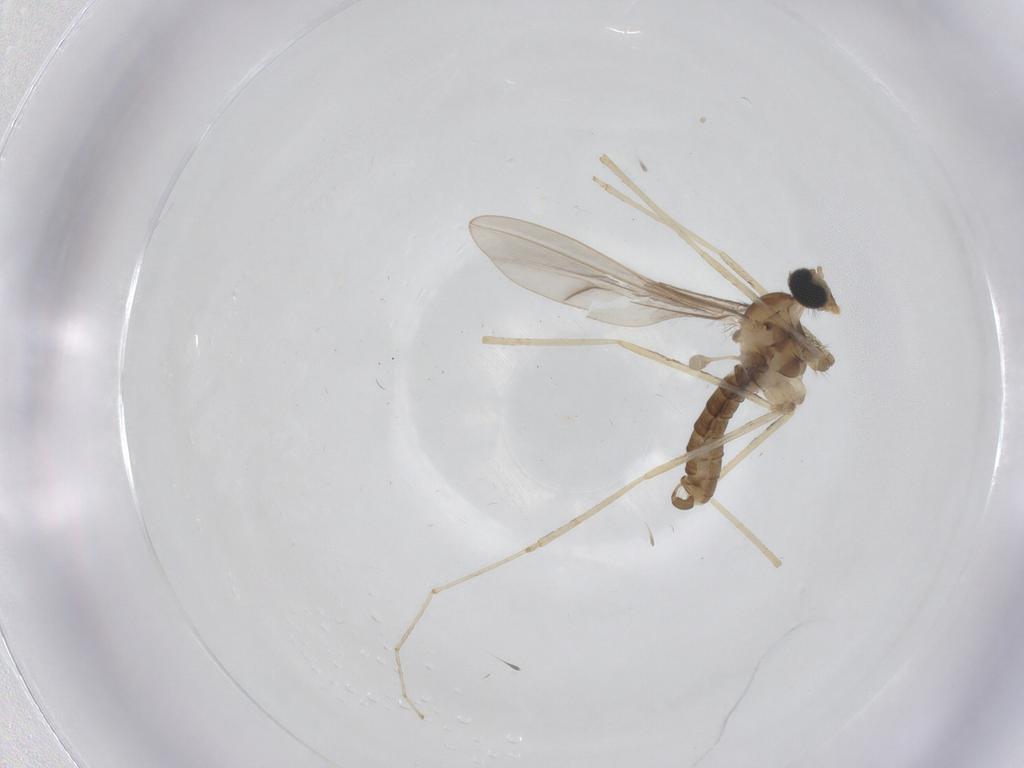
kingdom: Animalia
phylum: Arthropoda
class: Insecta
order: Diptera
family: Cecidomyiidae
